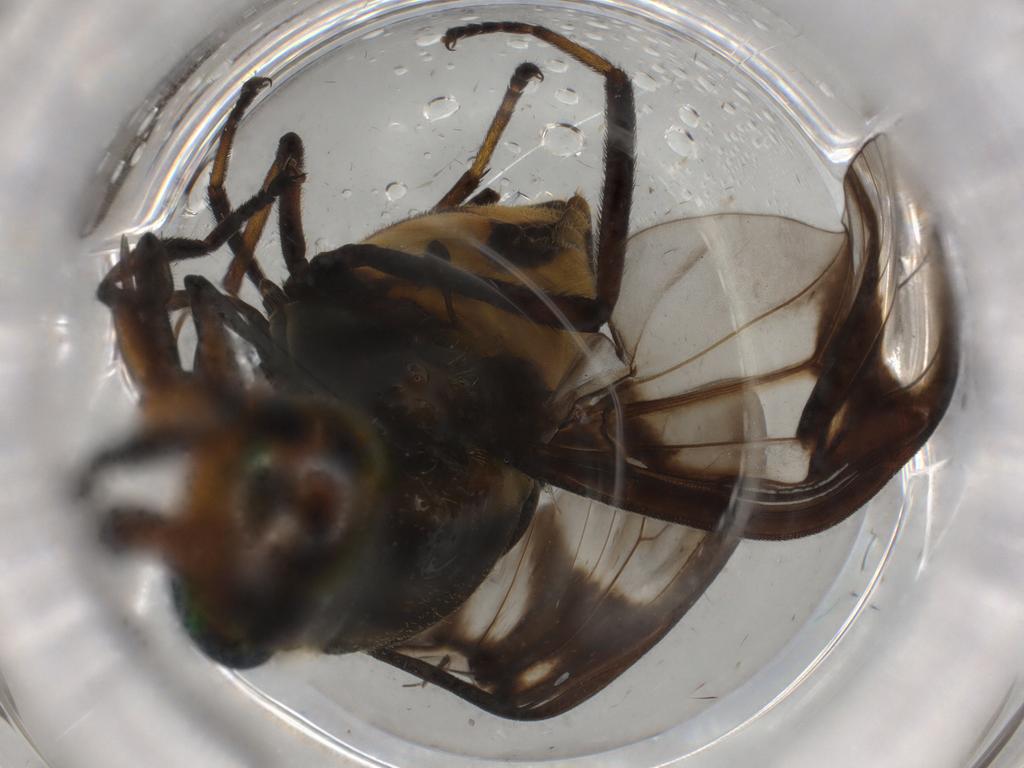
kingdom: Animalia
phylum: Arthropoda
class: Insecta
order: Diptera
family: Tabanidae
